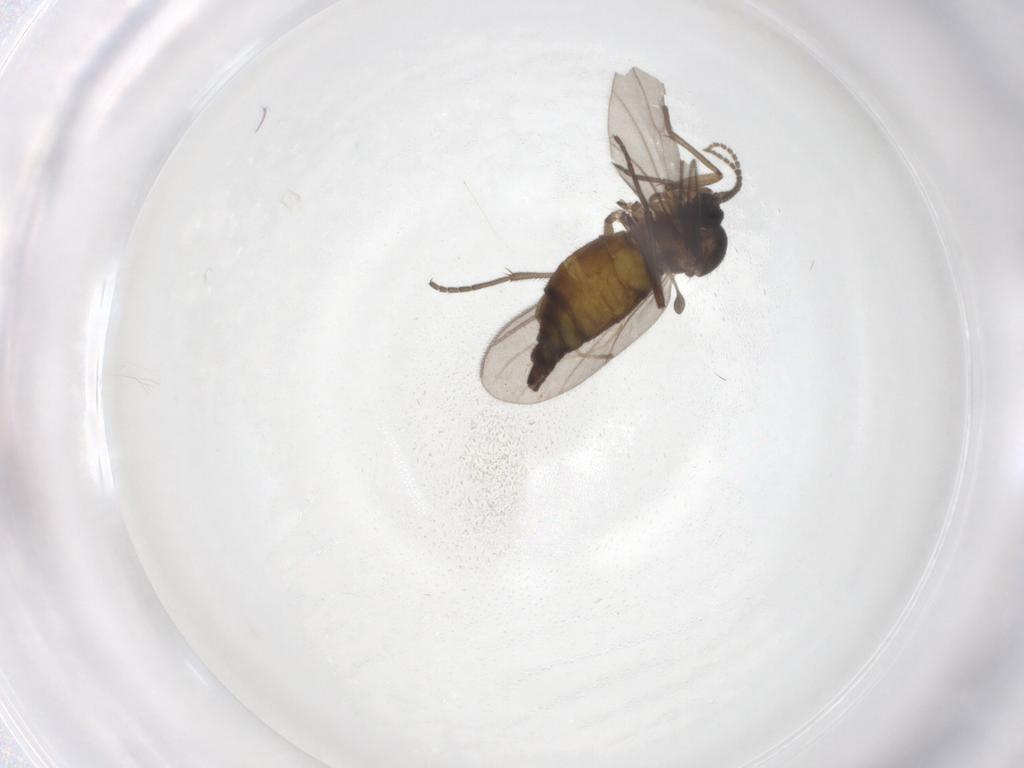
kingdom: Animalia
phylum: Arthropoda
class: Insecta
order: Diptera
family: Sciaridae
